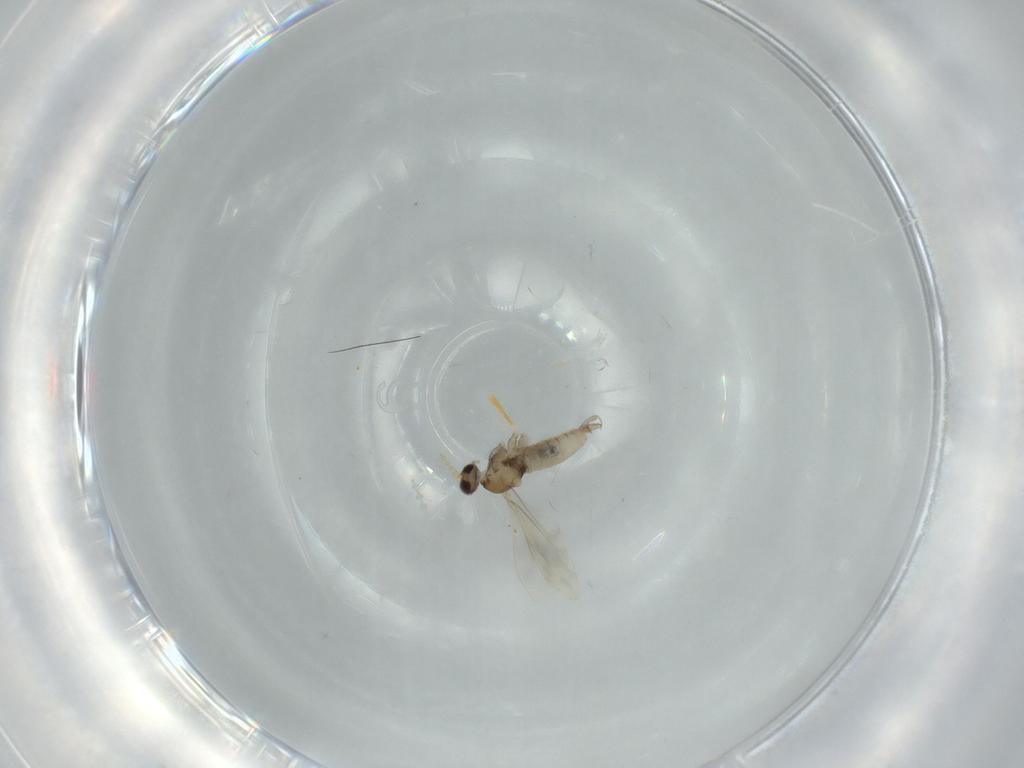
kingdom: Animalia
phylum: Arthropoda
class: Insecta
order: Diptera
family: Cecidomyiidae
